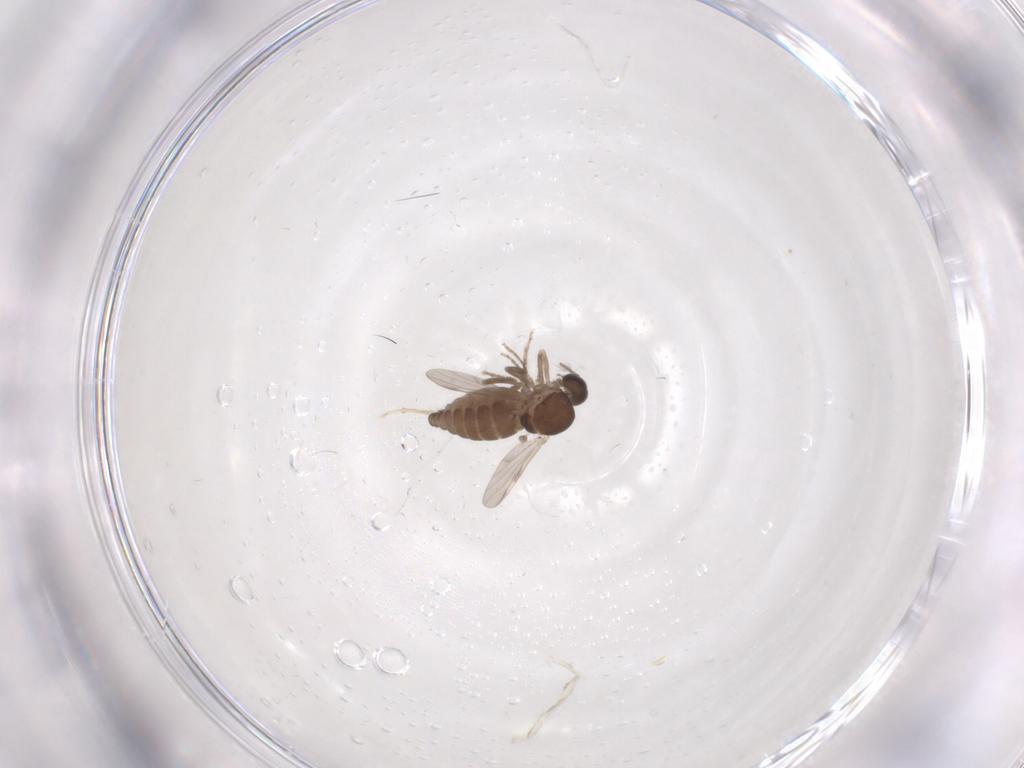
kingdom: Animalia
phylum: Arthropoda
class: Insecta
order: Diptera
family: Ceratopogonidae
